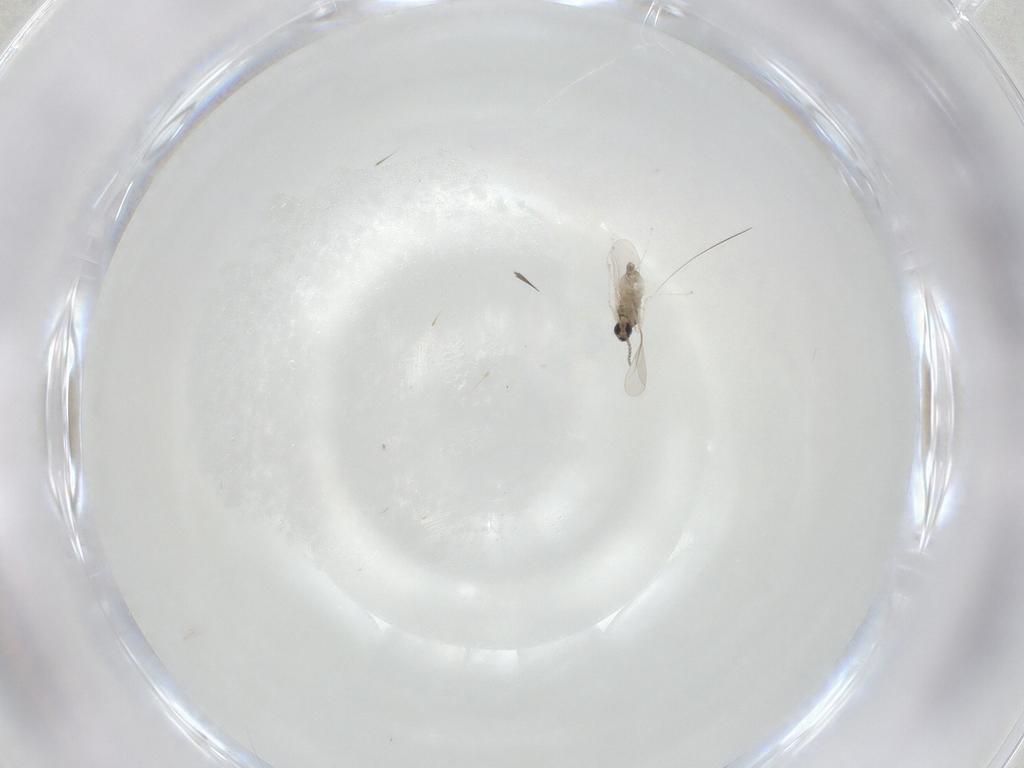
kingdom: Animalia
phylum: Arthropoda
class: Insecta
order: Diptera
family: Cecidomyiidae
